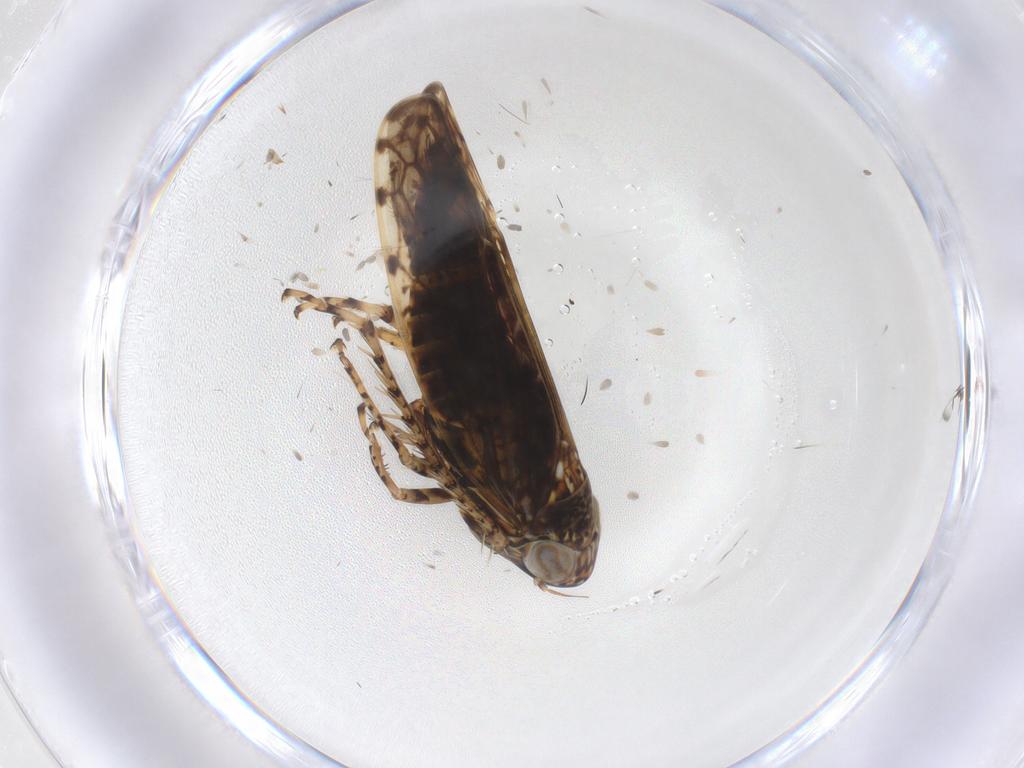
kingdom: Animalia
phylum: Arthropoda
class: Insecta
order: Hemiptera
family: Cicadellidae
